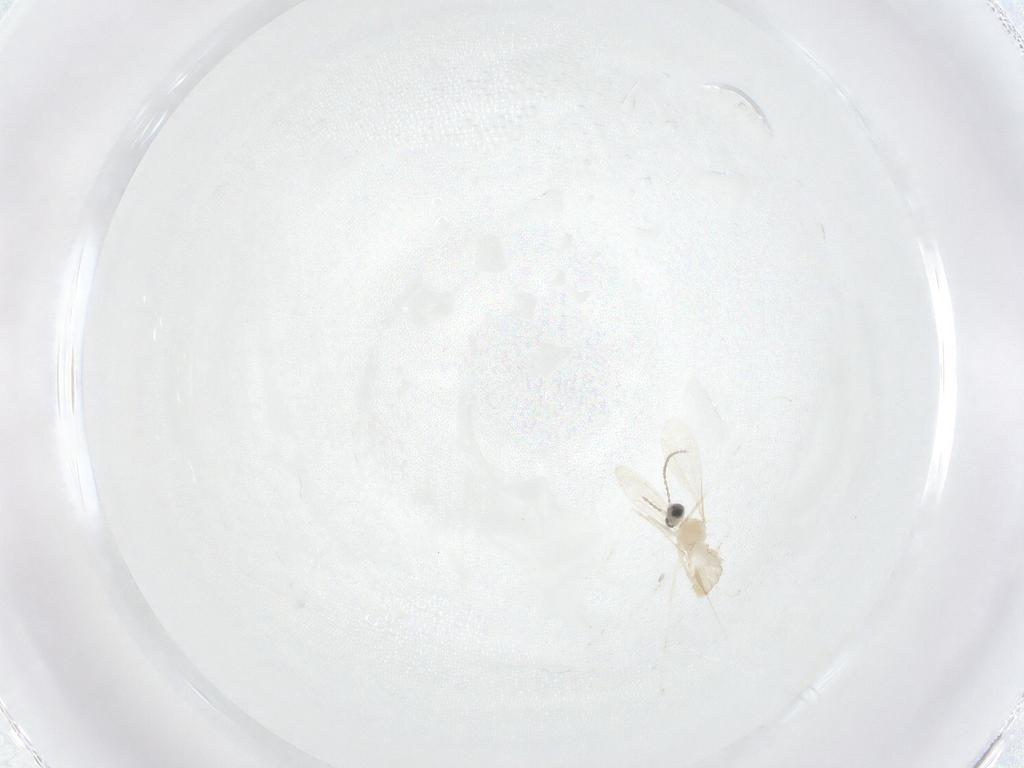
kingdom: Animalia
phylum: Arthropoda
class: Insecta
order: Diptera
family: Cecidomyiidae
